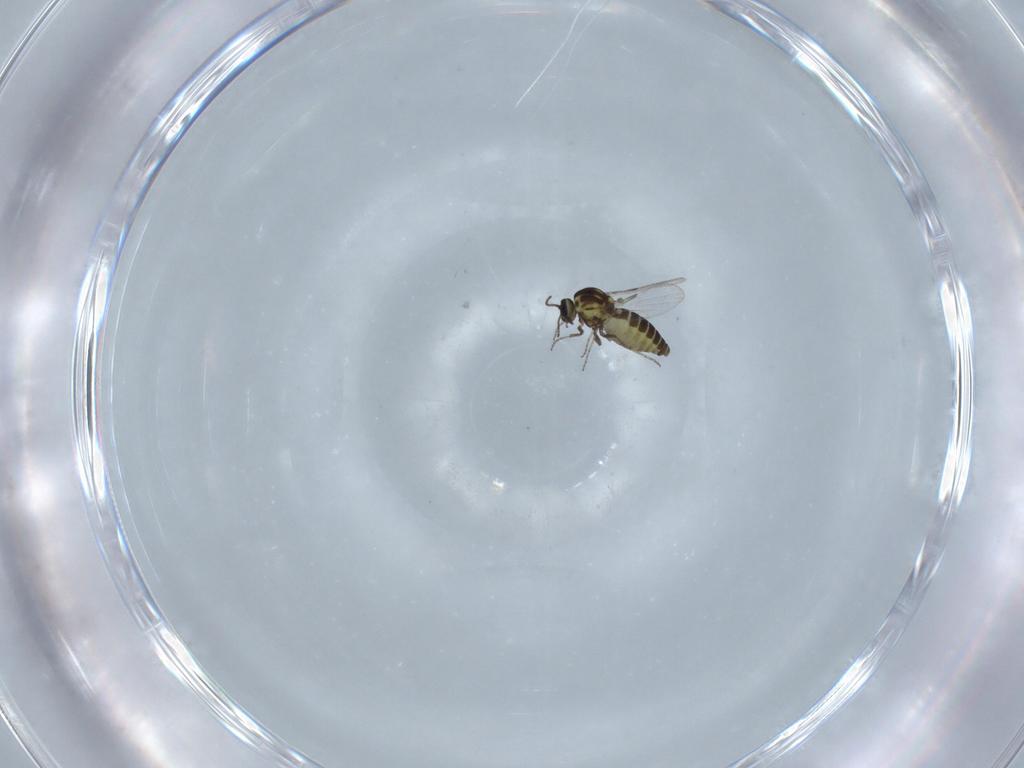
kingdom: Animalia
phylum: Arthropoda
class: Insecta
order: Diptera
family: Ceratopogonidae
